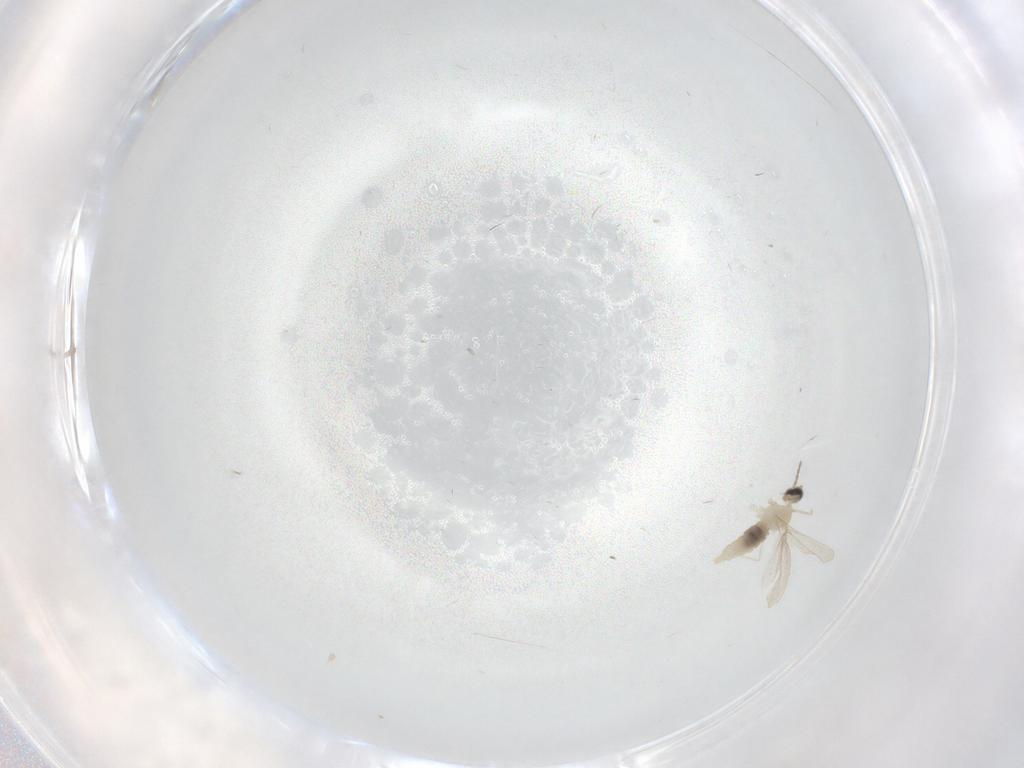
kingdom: Animalia
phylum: Arthropoda
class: Insecta
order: Diptera
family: Cecidomyiidae
